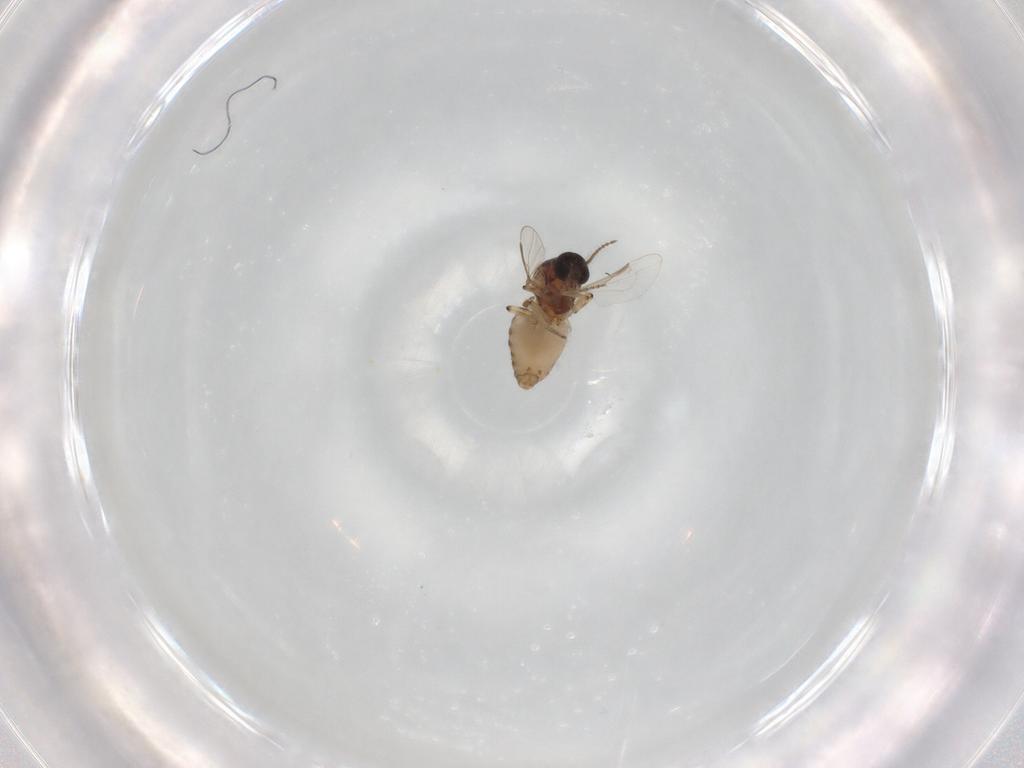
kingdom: Animalia
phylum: Arthropoda
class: Insecta
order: Diptera
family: Ceratopogonidae
